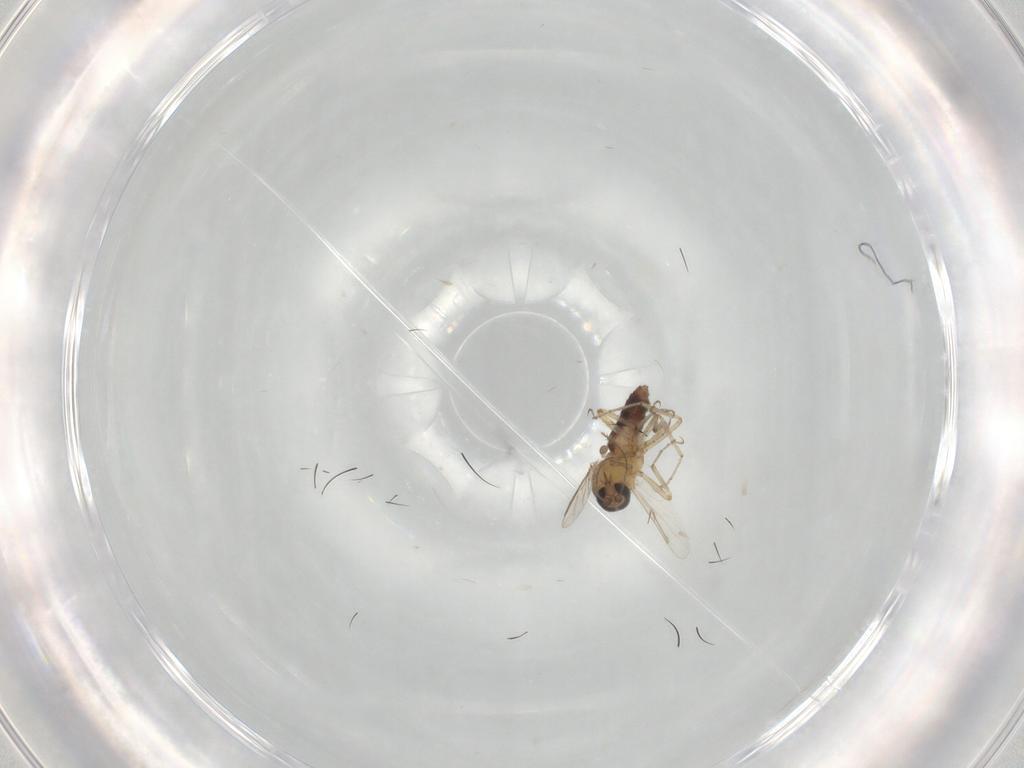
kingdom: Animalia
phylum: Arthropoda
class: Insecta
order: Diptera
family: Ceratopogonidae
